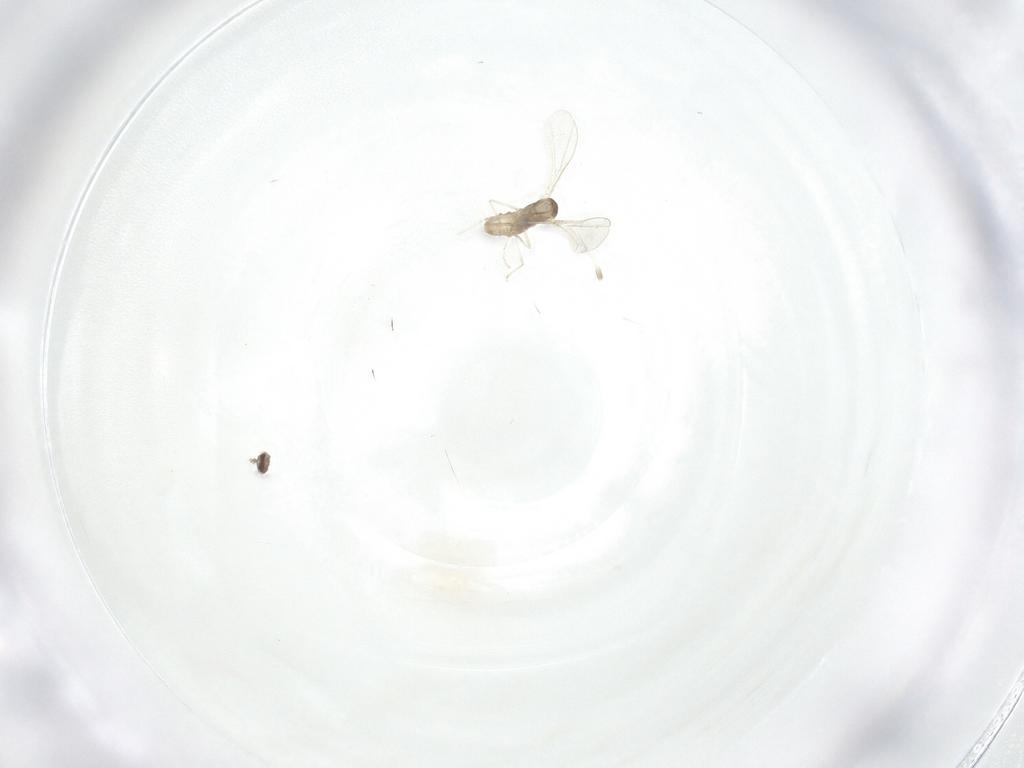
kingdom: Animalia
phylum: Arthropoda
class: Insecta
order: Diptera
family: Cecidomyiidae
